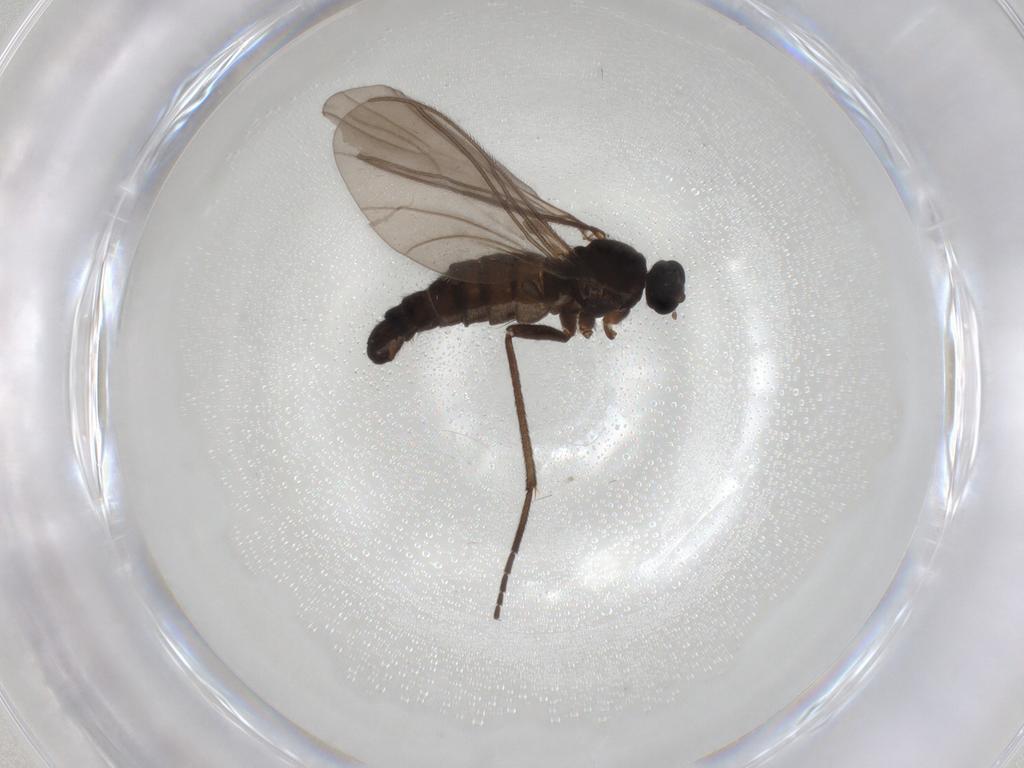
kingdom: Animalia
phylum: Arthropoda
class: Insecta
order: Diptera
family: Sciaridae
